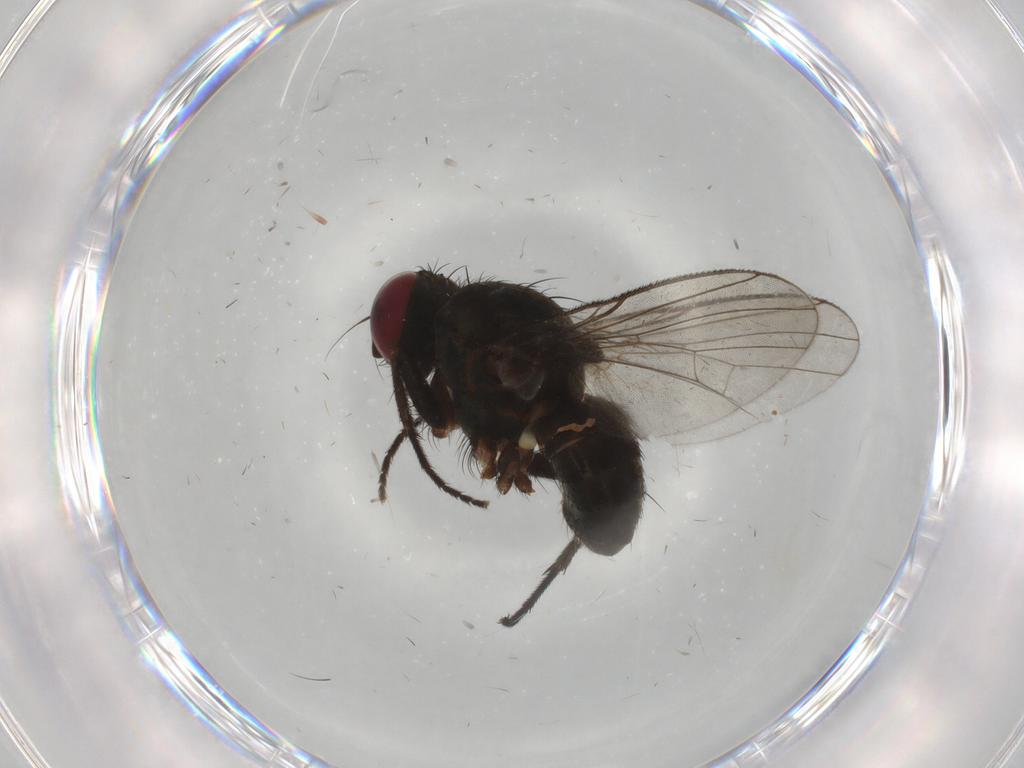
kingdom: Animalia
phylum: Arthropoda
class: Insecta
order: Diptera
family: Muscidae
